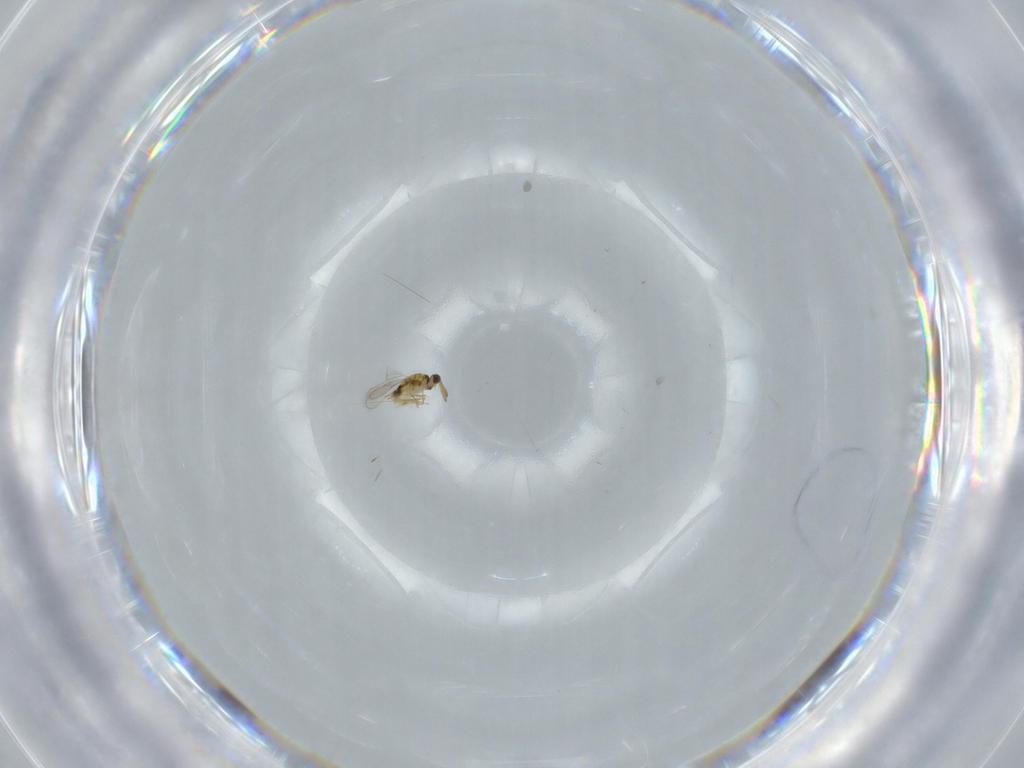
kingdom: Animalia
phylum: Arthropoda
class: Insecta
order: Hymenoptera
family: Aphelinidae
